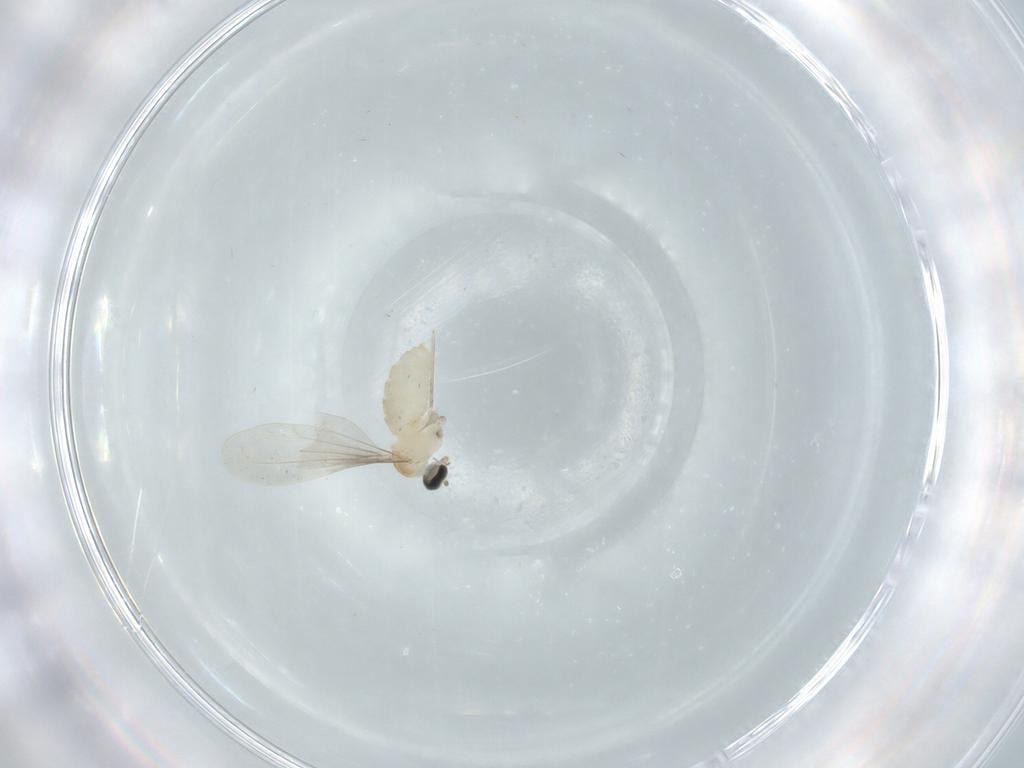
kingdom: Animalia
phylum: Arthropoda
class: Insecta
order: Diptera
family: Cecidomyiidae
